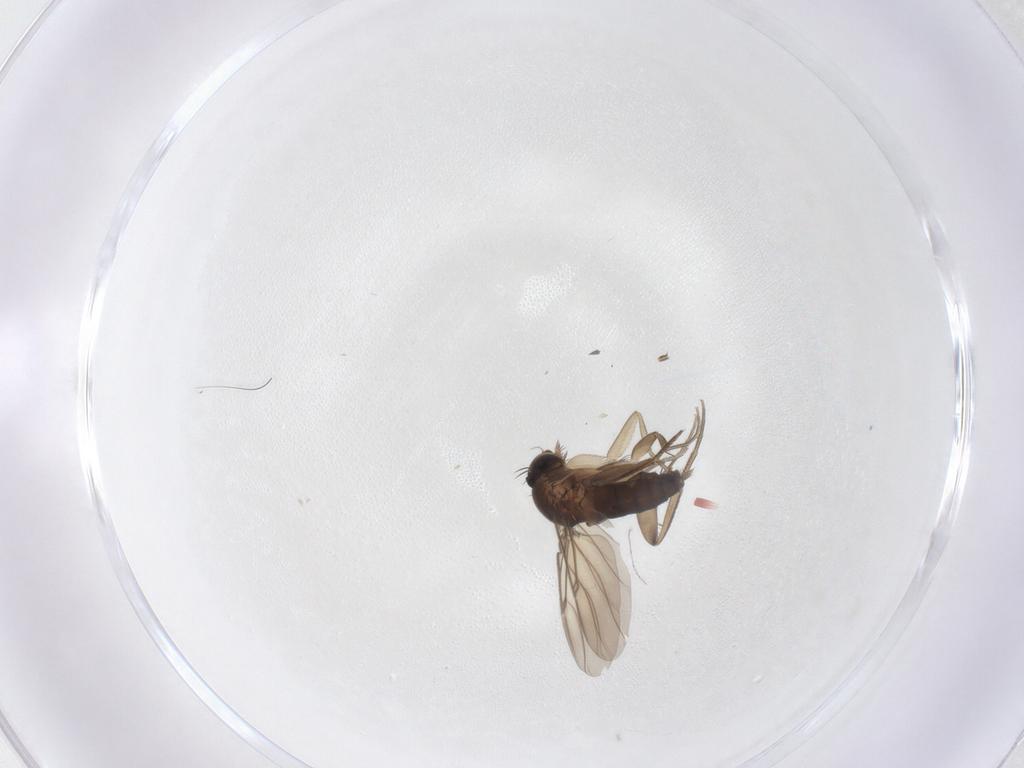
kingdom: Animalia
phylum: Arthropoda
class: Insecta
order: Diptera
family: Phoridae
